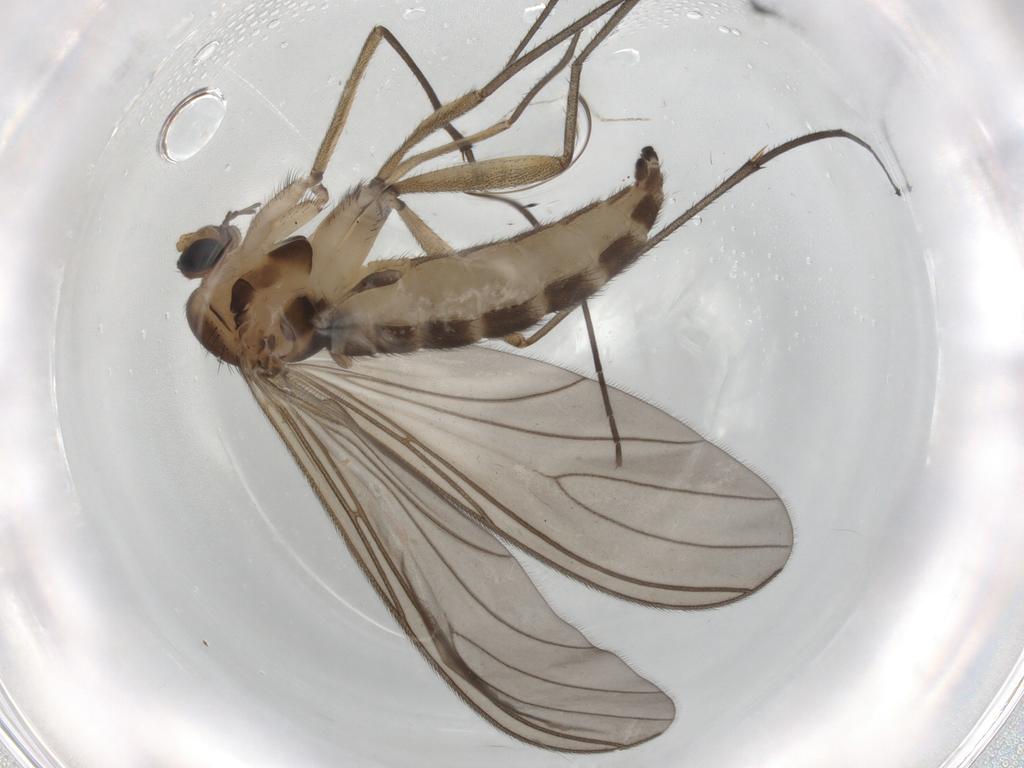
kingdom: Animalia
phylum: Arthropoda
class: Insecta
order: Diptera
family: Sciaridae
